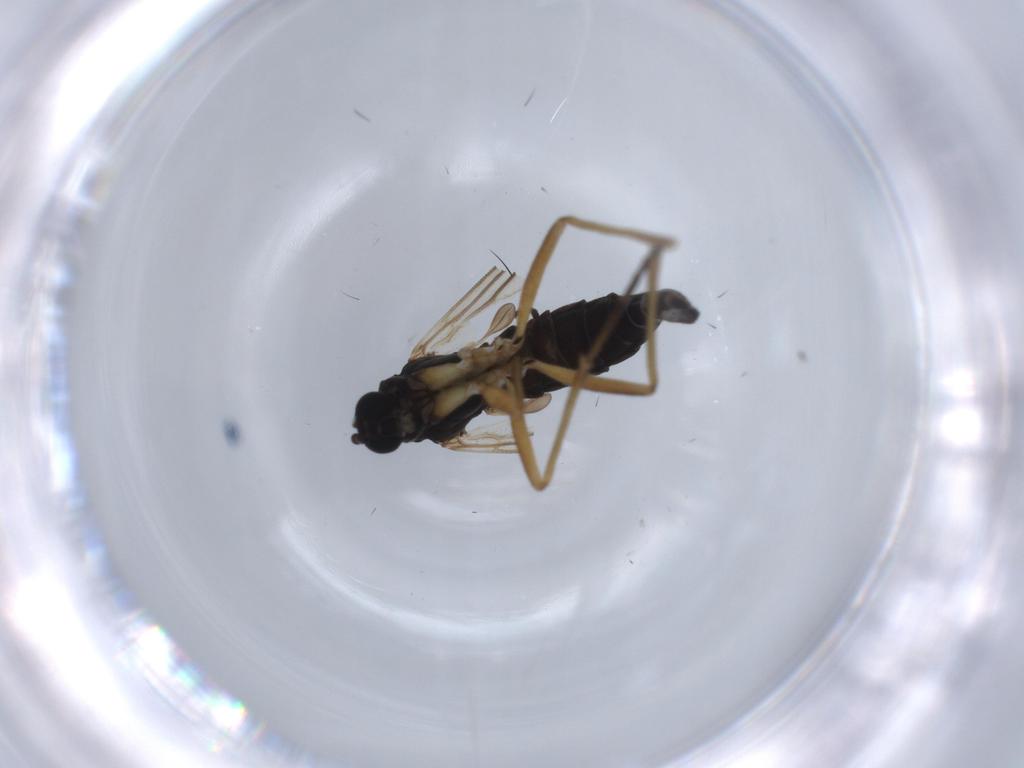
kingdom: Animalia
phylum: Arthropoda
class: Insecta
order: Diptera
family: Sciaridae
